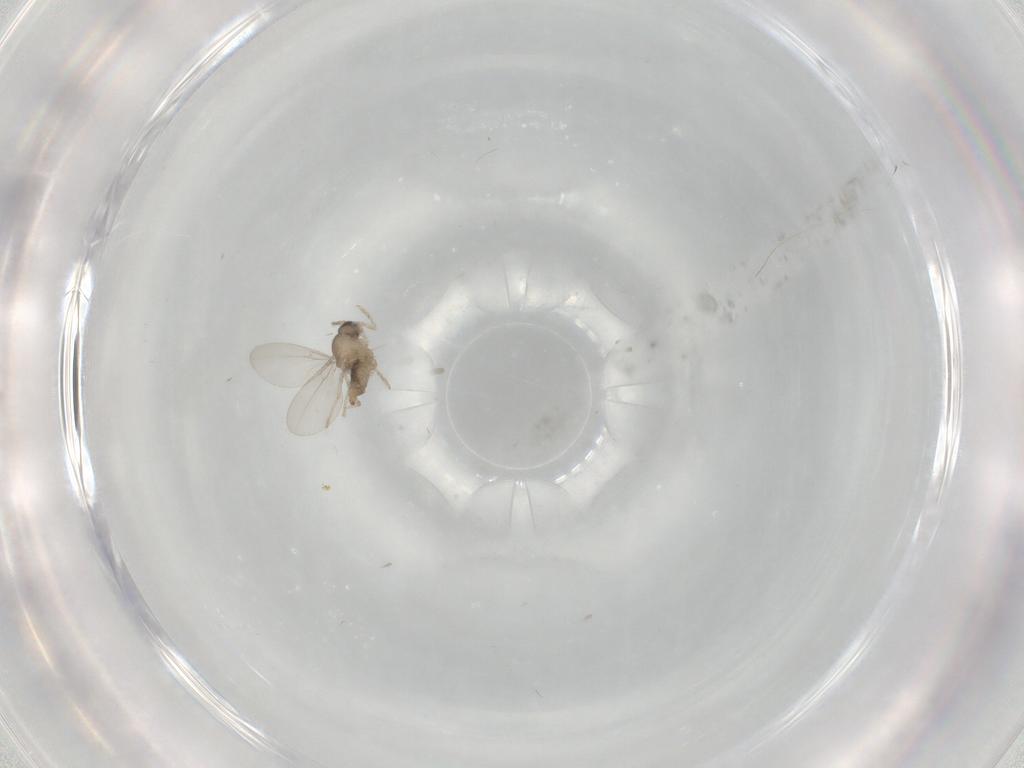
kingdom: Animalia
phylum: Arthropoda
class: Insecta
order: Diptera
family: Cecidomyiidae
